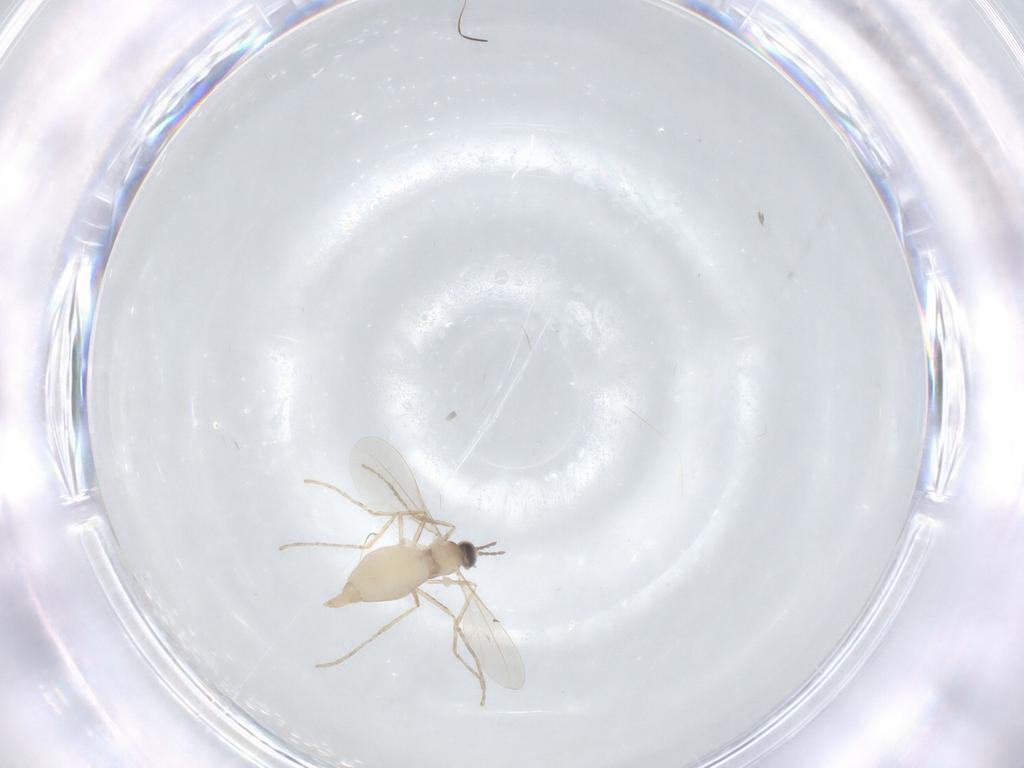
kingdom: Animalia
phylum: Arthropoda
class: Insecta
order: Diptera
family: Cecidomyiidae
